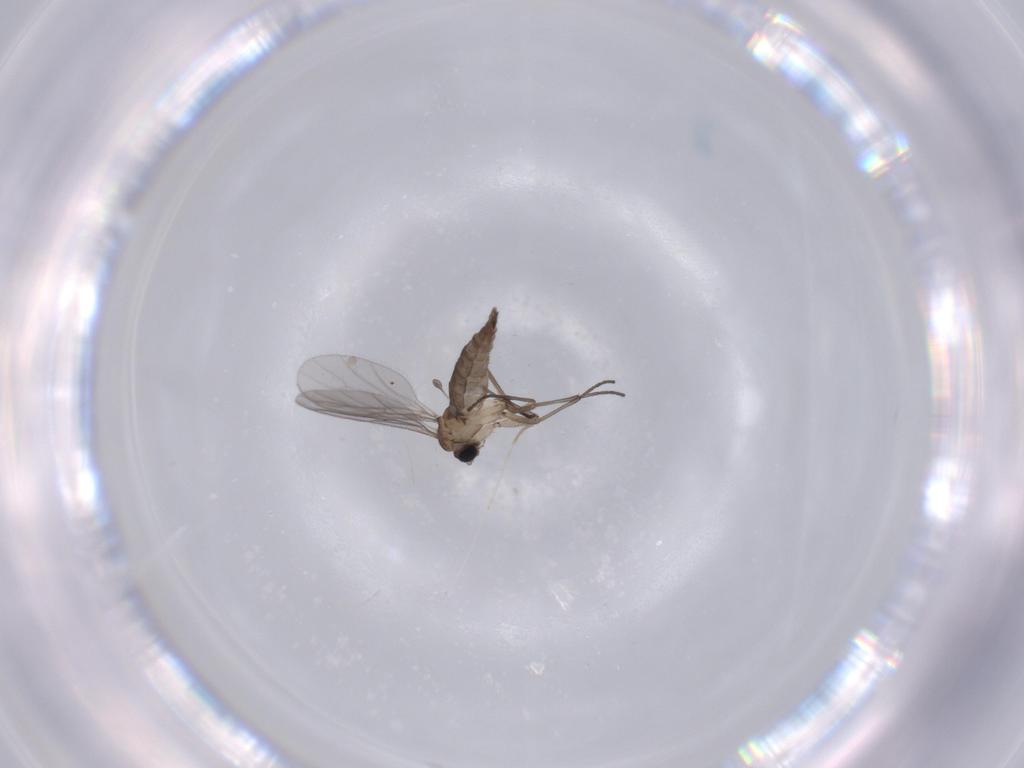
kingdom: Animalia
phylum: Arthropoda
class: Insecta
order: Diptera
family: Sciaridae
